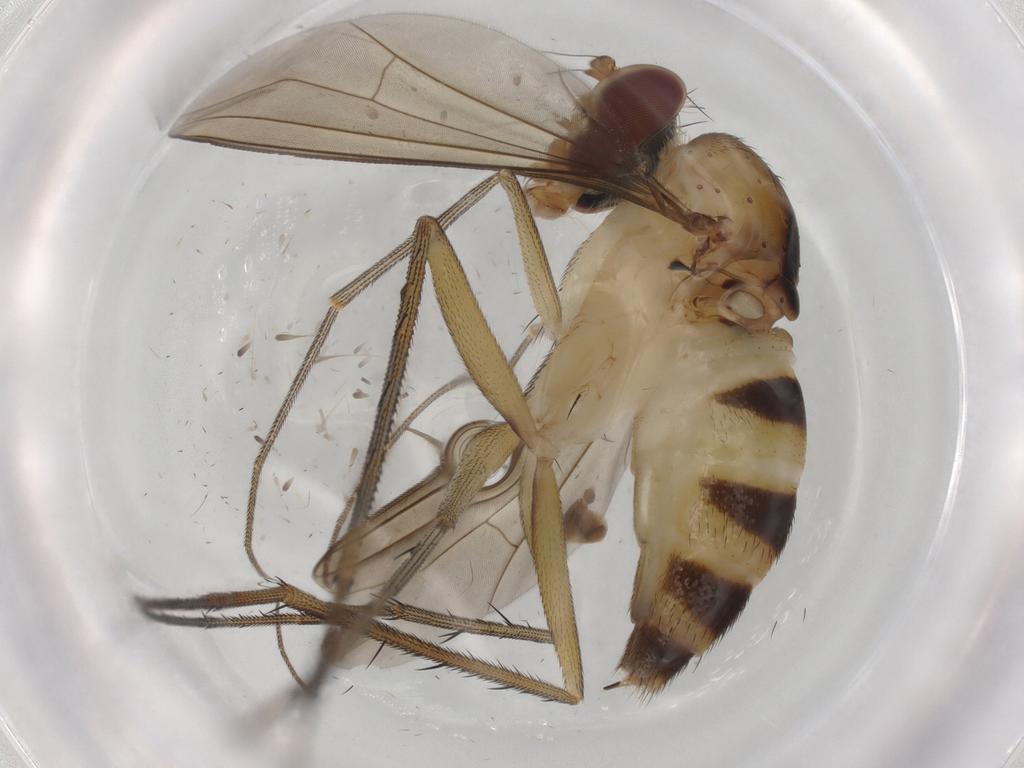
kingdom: Animalia
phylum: Arthropoda
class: Insecta
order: Diptera
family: Dolichopodidae
